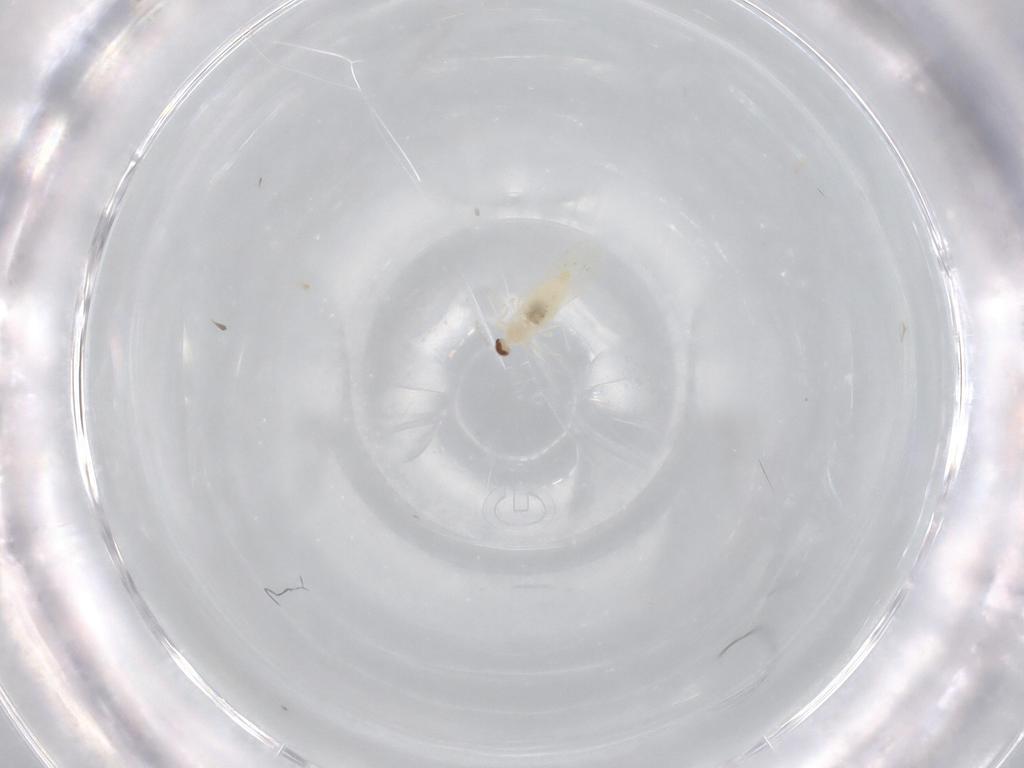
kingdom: Animalia
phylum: Arthropoda
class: Insecta
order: Diptera
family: Cecidomyiidae
